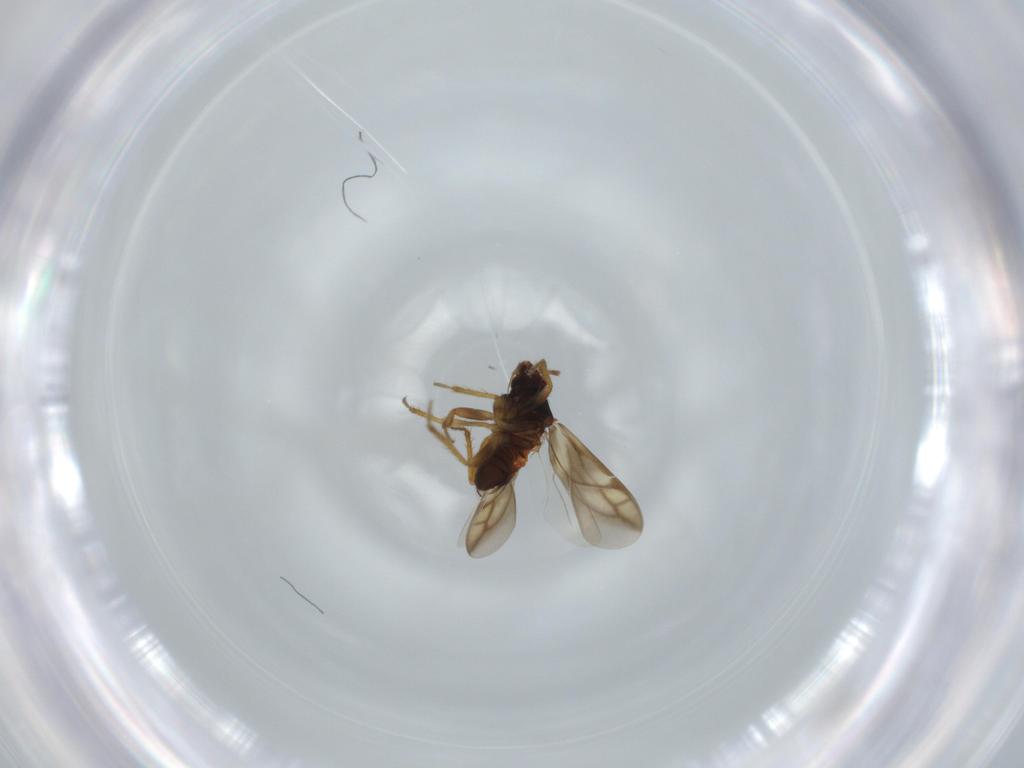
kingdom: Animalia
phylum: Arthropoda
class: Insecta
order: Hemiptera
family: Ceratocombidae
